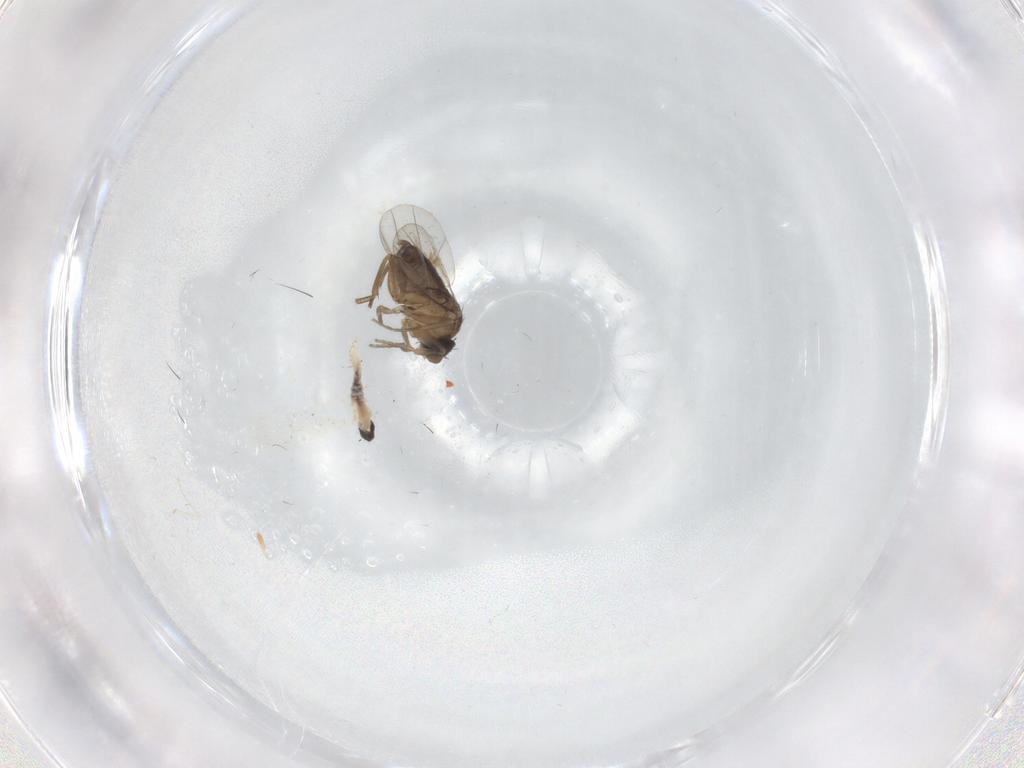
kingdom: Animalia
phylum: Arthropoda
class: Insecta
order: Diptera
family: Cecidomyiidae
